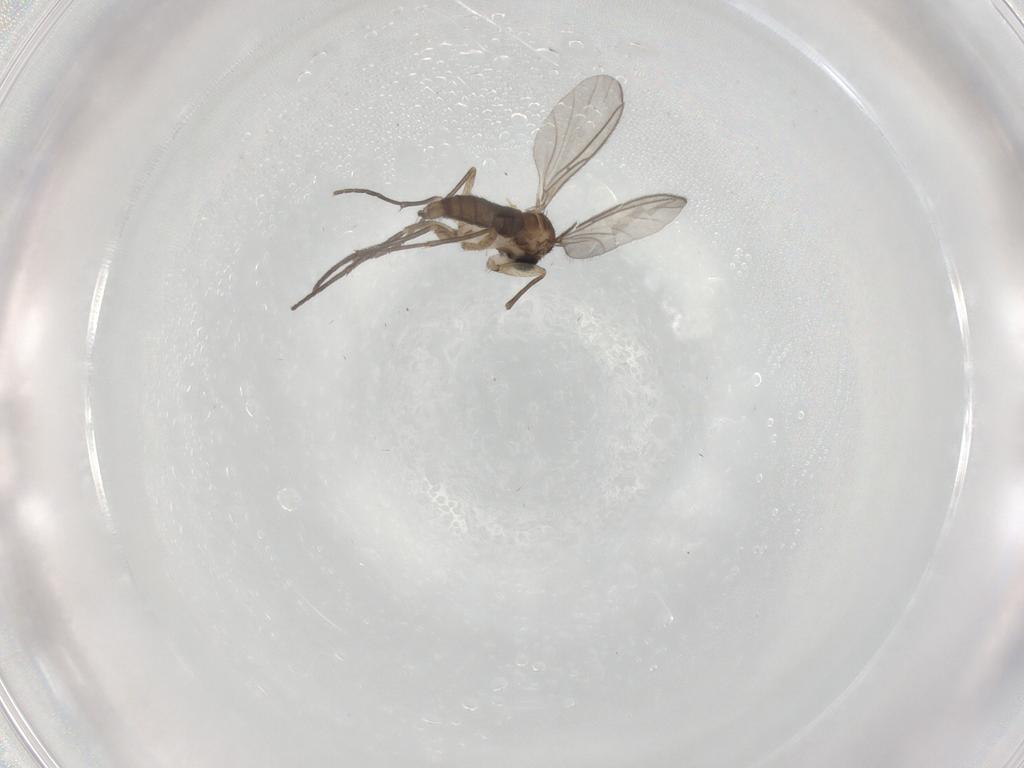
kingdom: Animalia
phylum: Arthropoda
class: Insecta
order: Diptera
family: Sciaridae
